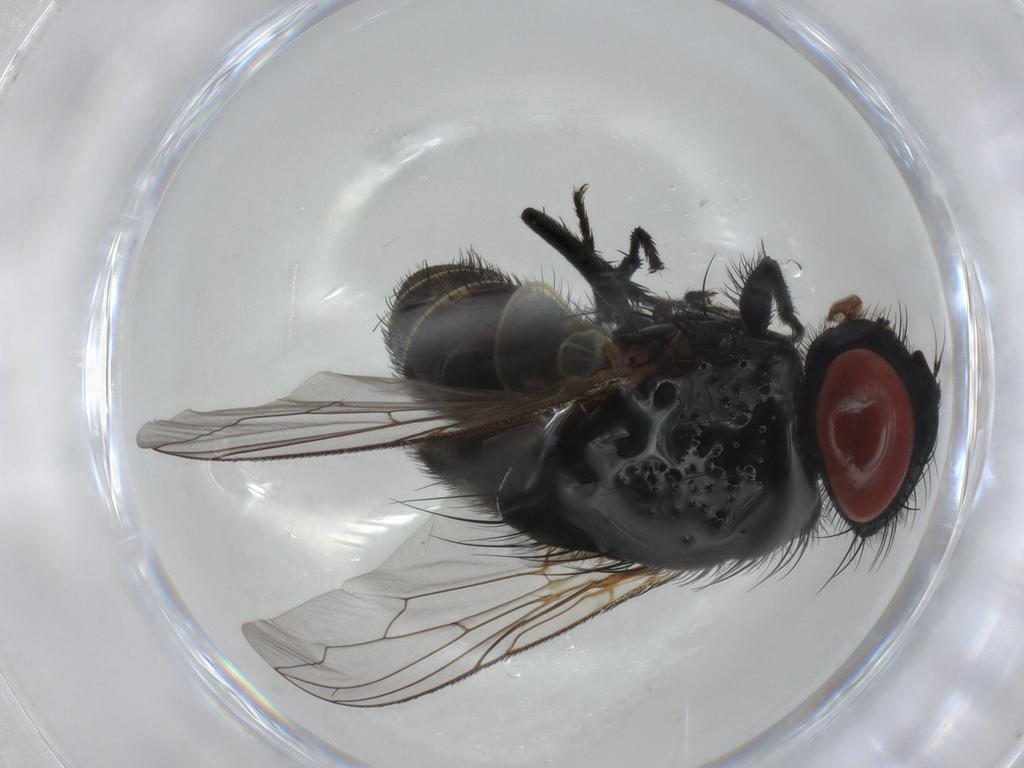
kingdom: Animalia
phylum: Arthropoda
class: Insecta
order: Diptera
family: Sarcophagidae
